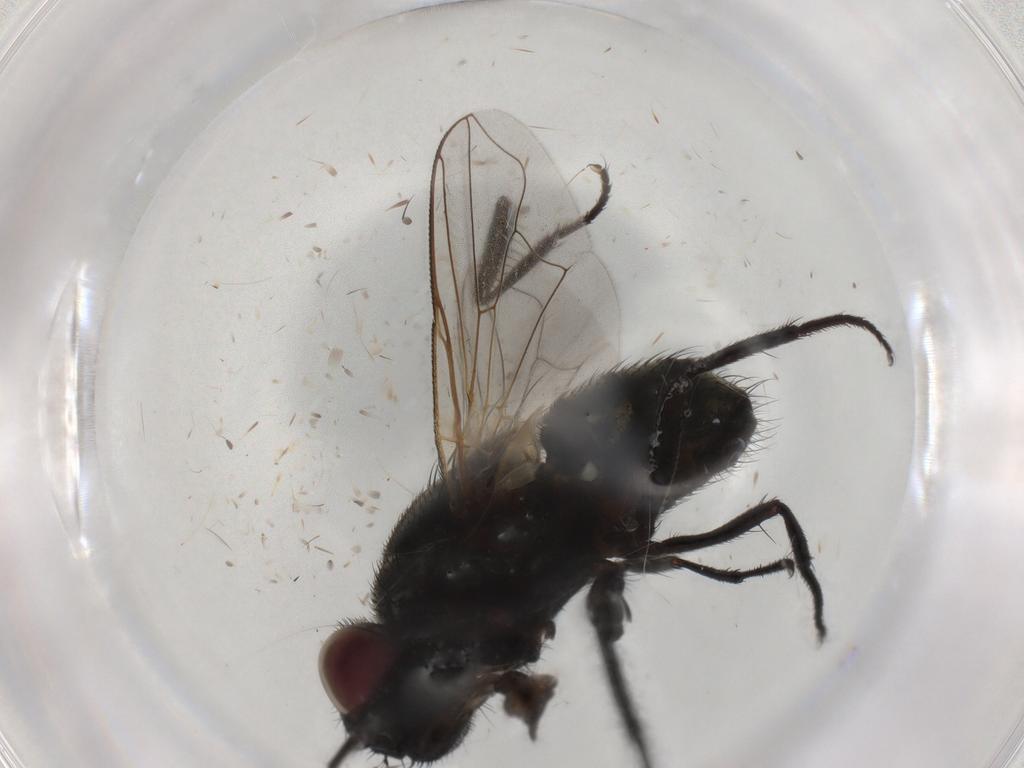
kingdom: Animalia
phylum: Arthropoda
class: Insecta
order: Diptera
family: Muscidae
